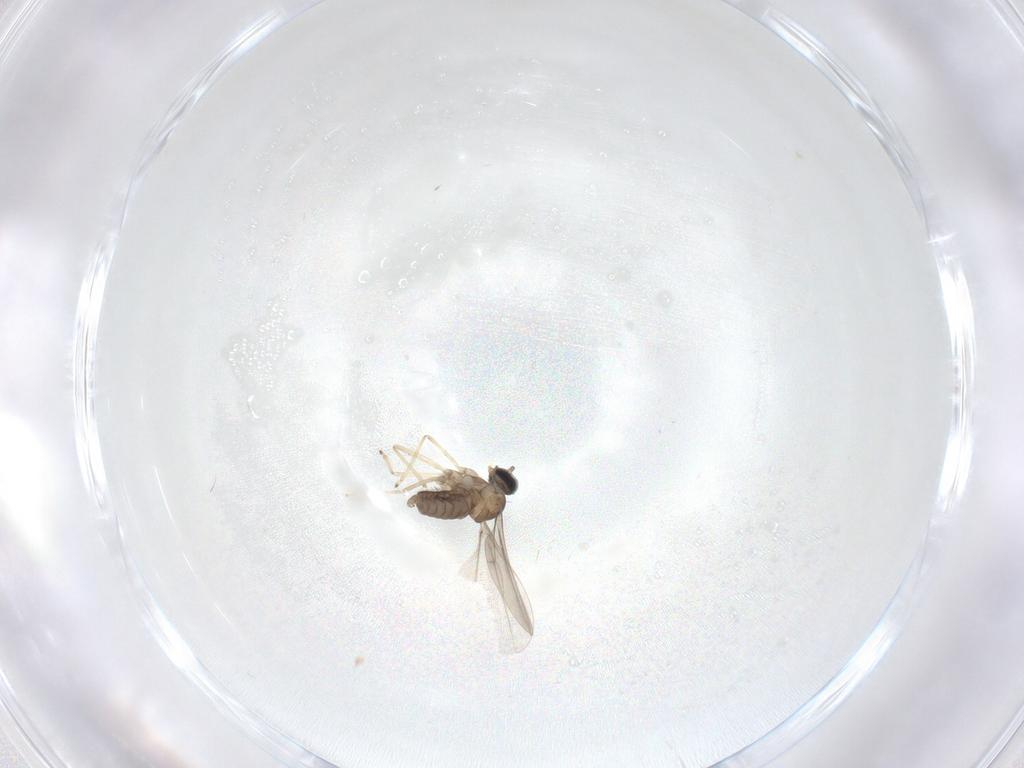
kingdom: Animalia
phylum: Arthropoda
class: Insecta
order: Diptera
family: Cecidomyiidae
